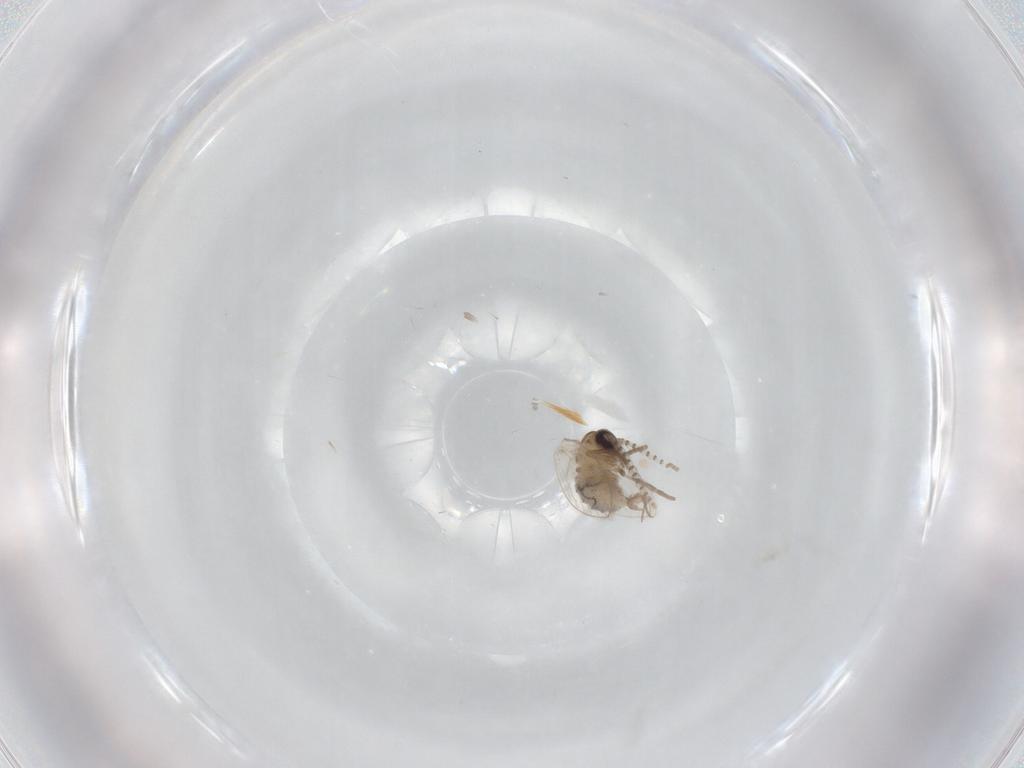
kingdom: Animalia
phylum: Arthropoda
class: Insecta
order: Diptera
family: Psychodidae
